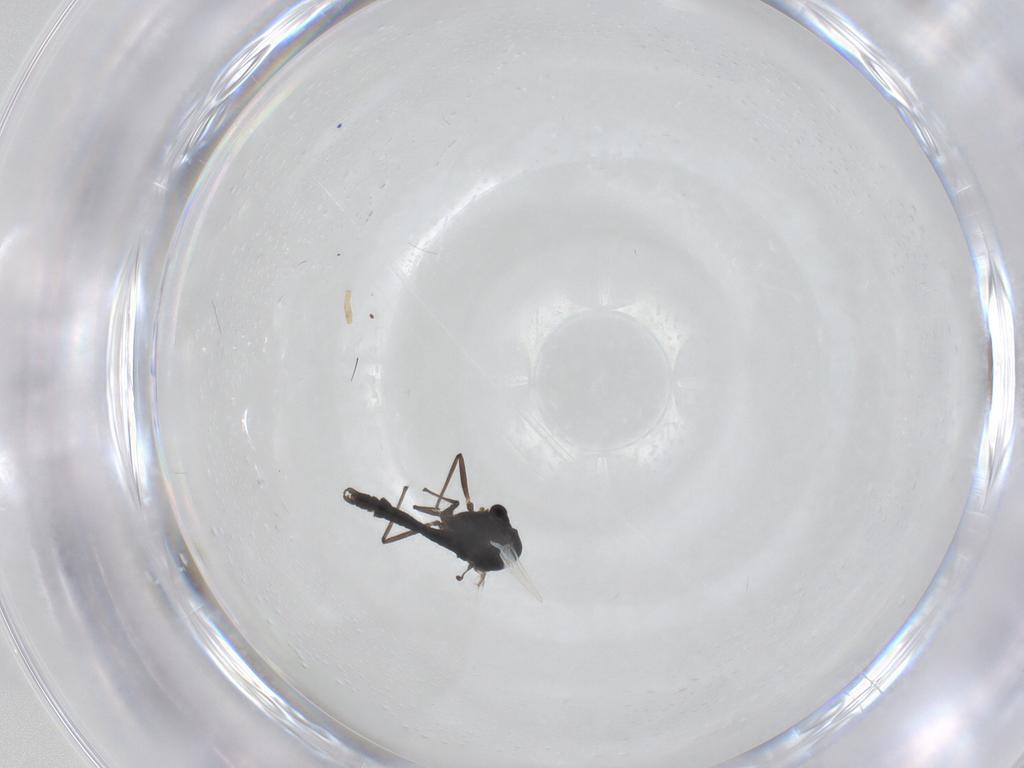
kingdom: Animalia
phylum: Arthropoda
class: Insecta
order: Diptera
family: Chironomidae
